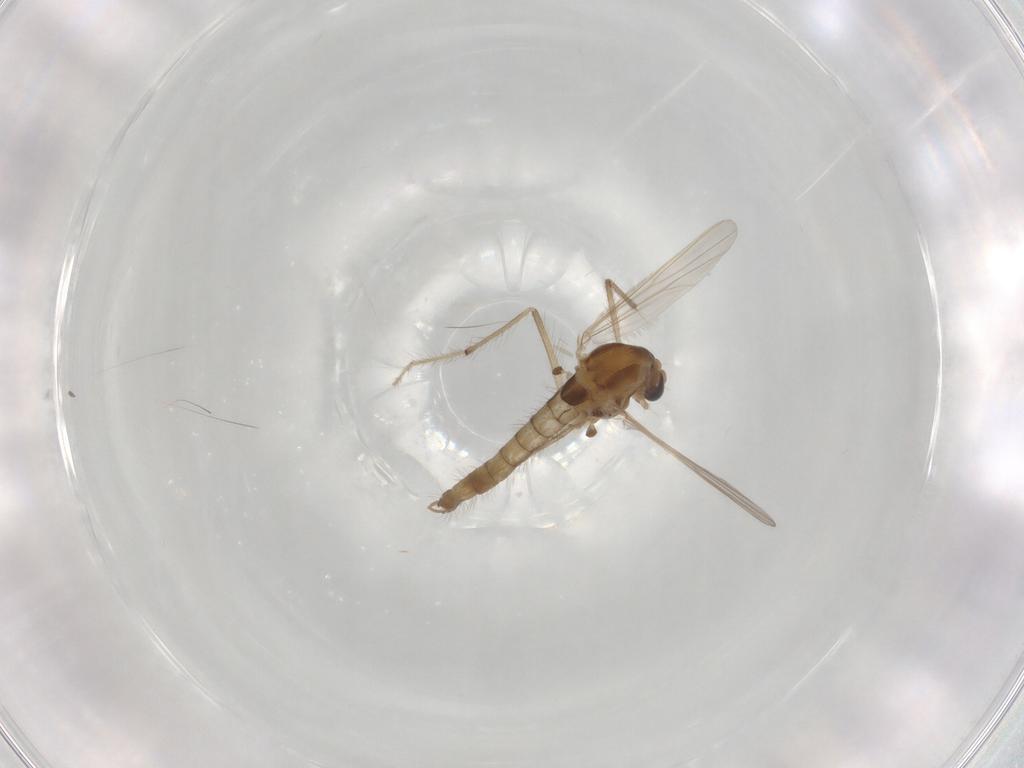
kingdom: Animalia
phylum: Arthropoda
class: Insecta
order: Diptera
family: Chironomidae
